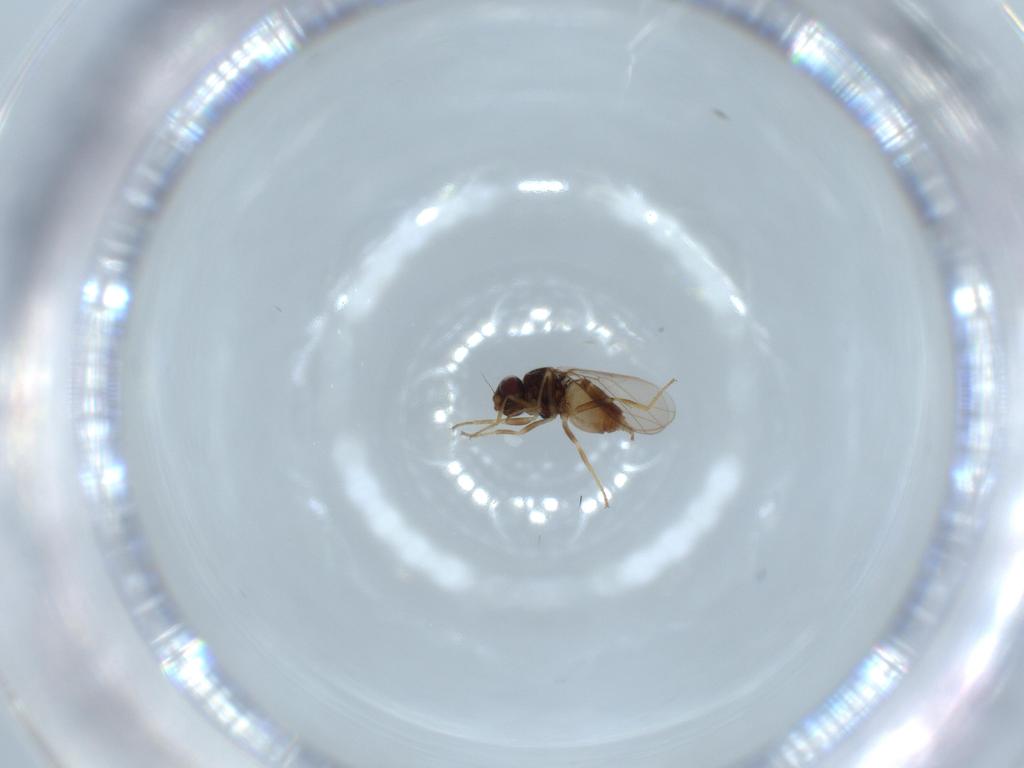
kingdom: Animalia
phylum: Arthropoda
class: Insecta
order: Diptera
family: Chloropidae
